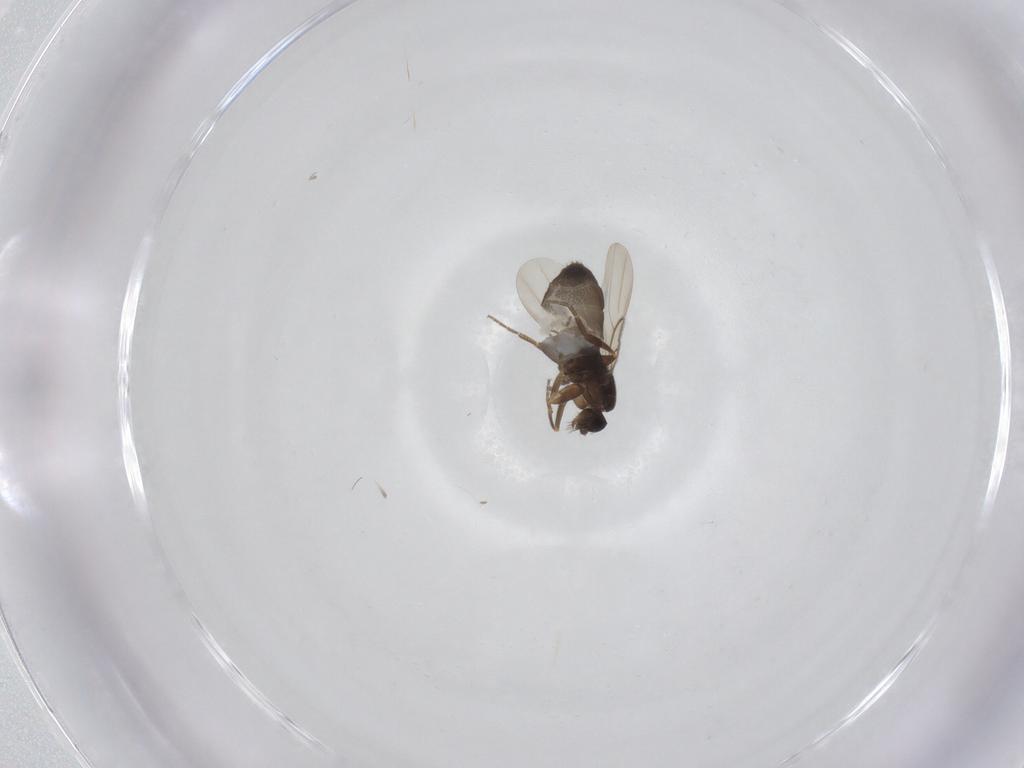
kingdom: Animalia
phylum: Arthropoda
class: Insecta
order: Diptera
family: Phoridae
